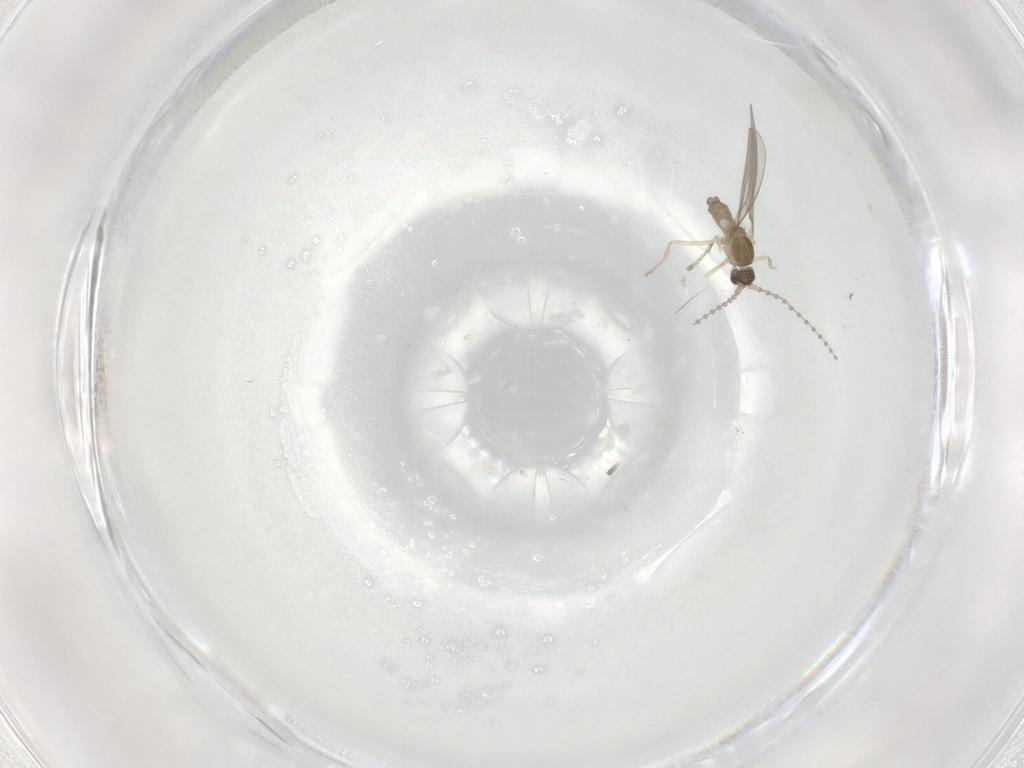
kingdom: Animalia
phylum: Arthropoda
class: Insecta
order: Diptera
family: Cecidomyiidae
